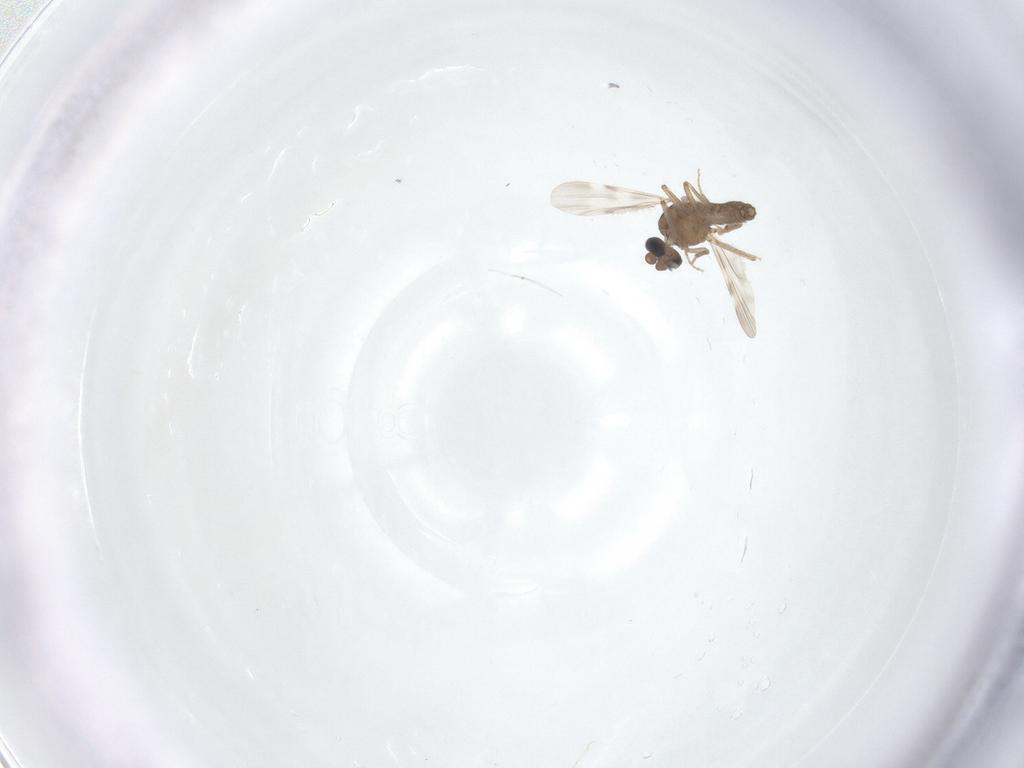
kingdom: Animalia
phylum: Arthropoda
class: Insecta
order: Diptera
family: Ceratopogonidae
